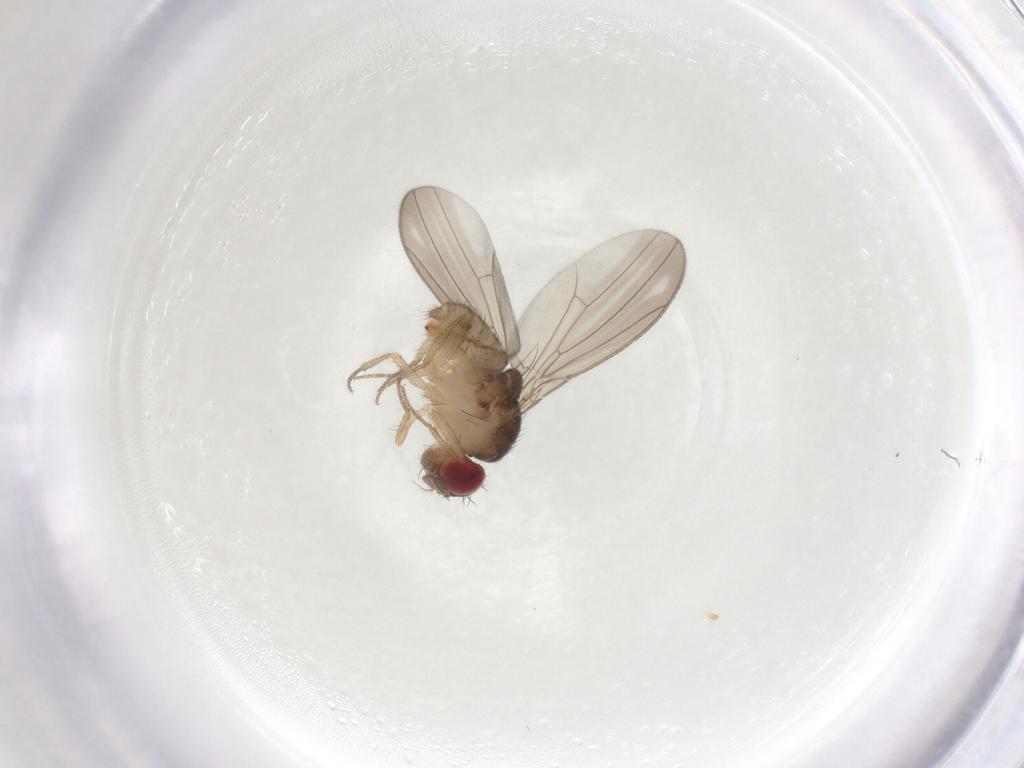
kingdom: Animalia
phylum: Arthropoda
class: Insecta
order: Diptera
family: Drosophilidae
